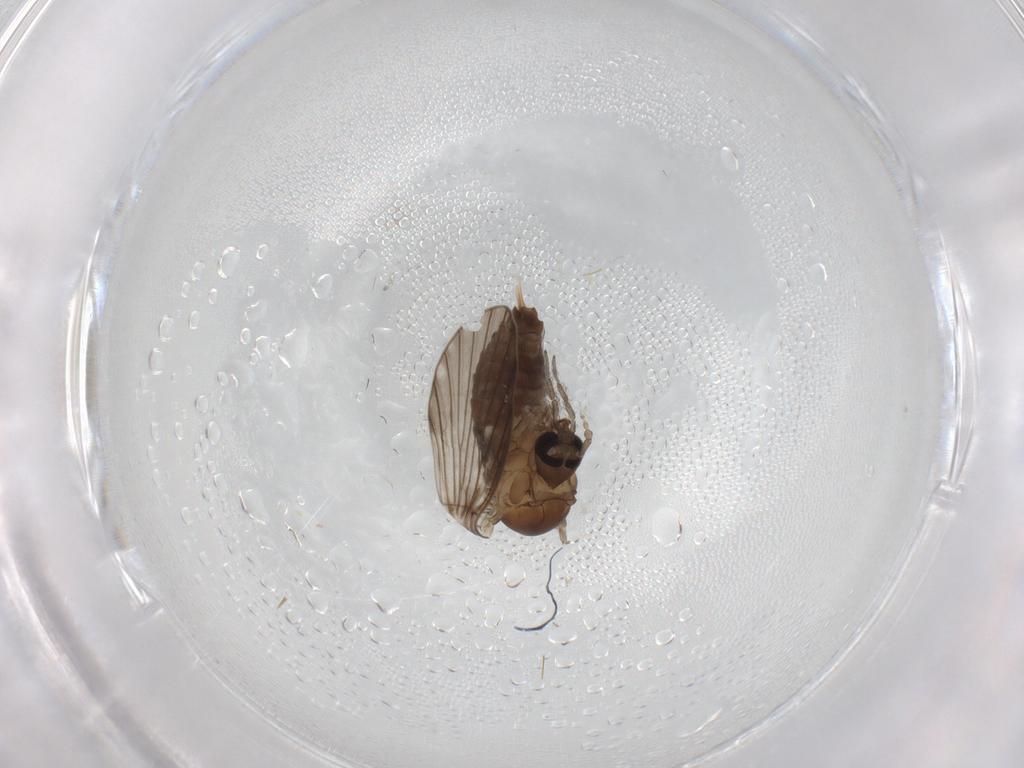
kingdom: Animalia
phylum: Arthropoda
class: Insecta
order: Diptera
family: Psychodidae
